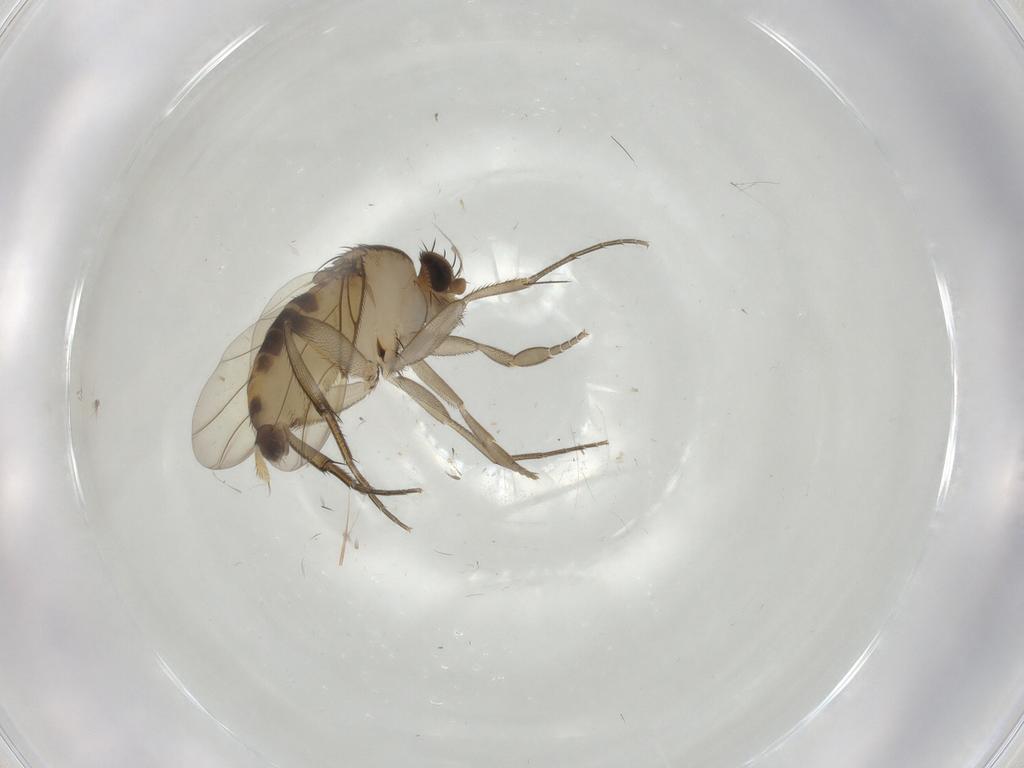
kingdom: Animalia
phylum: Arthropoda
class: Insecta
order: Diptera
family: Phoridae
